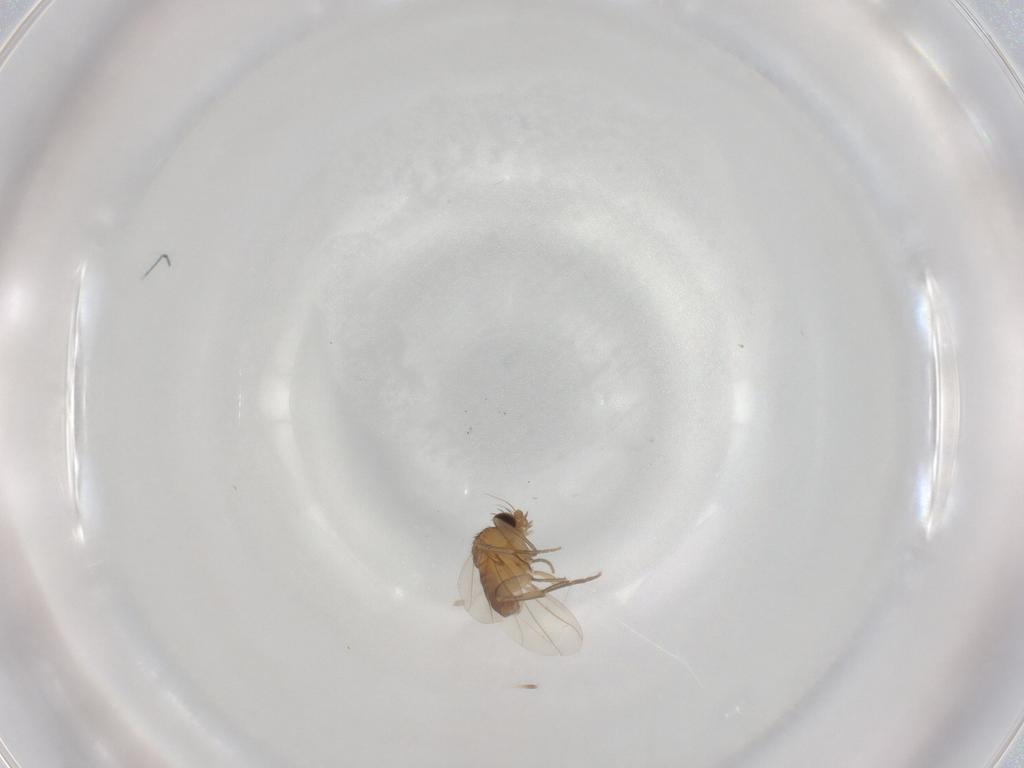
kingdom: Animalia
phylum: Arthropoda
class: Insecta
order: Diptera
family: Phoridae
